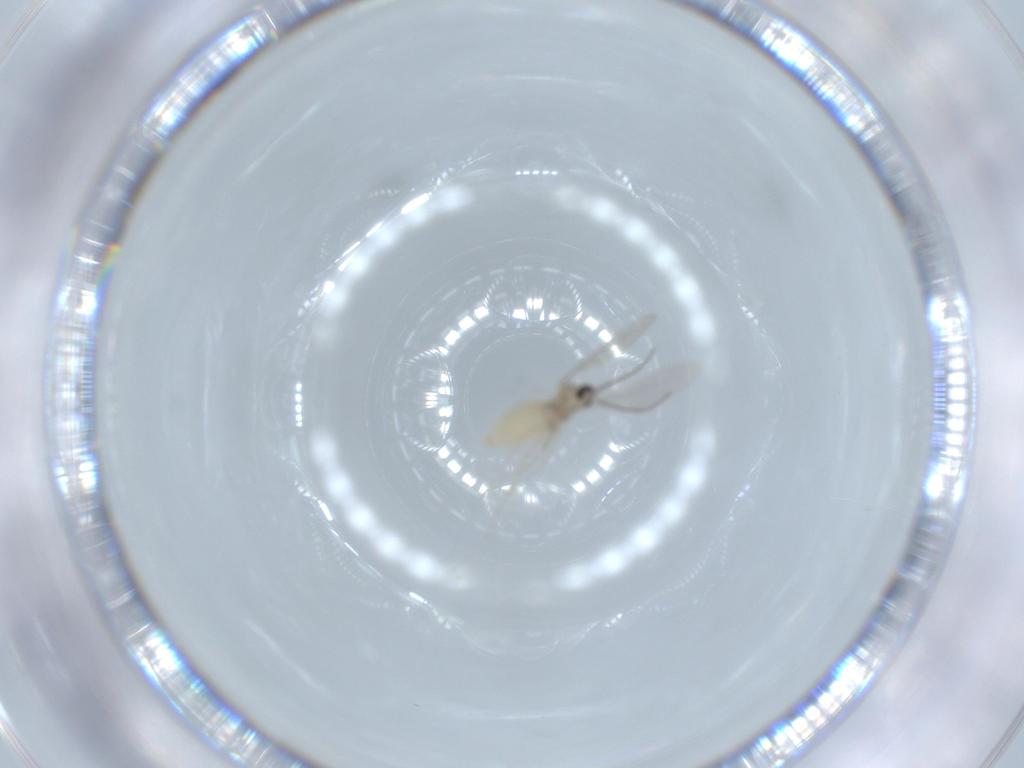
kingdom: Animalia
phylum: Arthropoda
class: Insecta
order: Diptera
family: Cecidomyiidae
